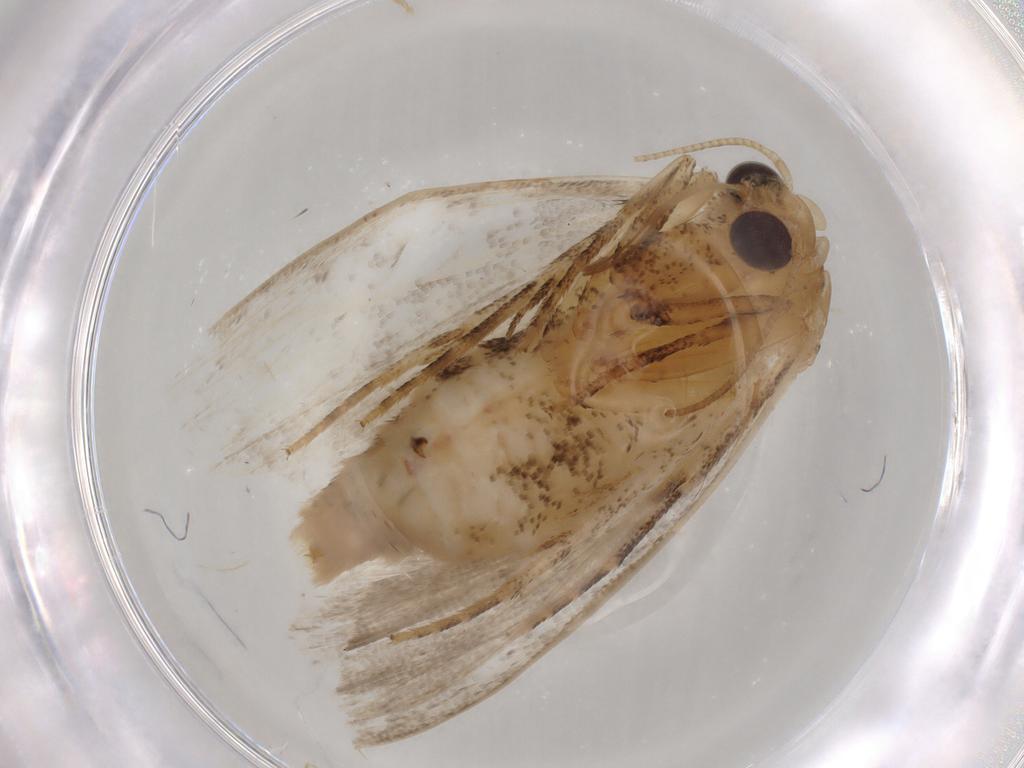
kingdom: Animalia
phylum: Arthropoda
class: Insecta
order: Lepidoptera
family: Nolidae
